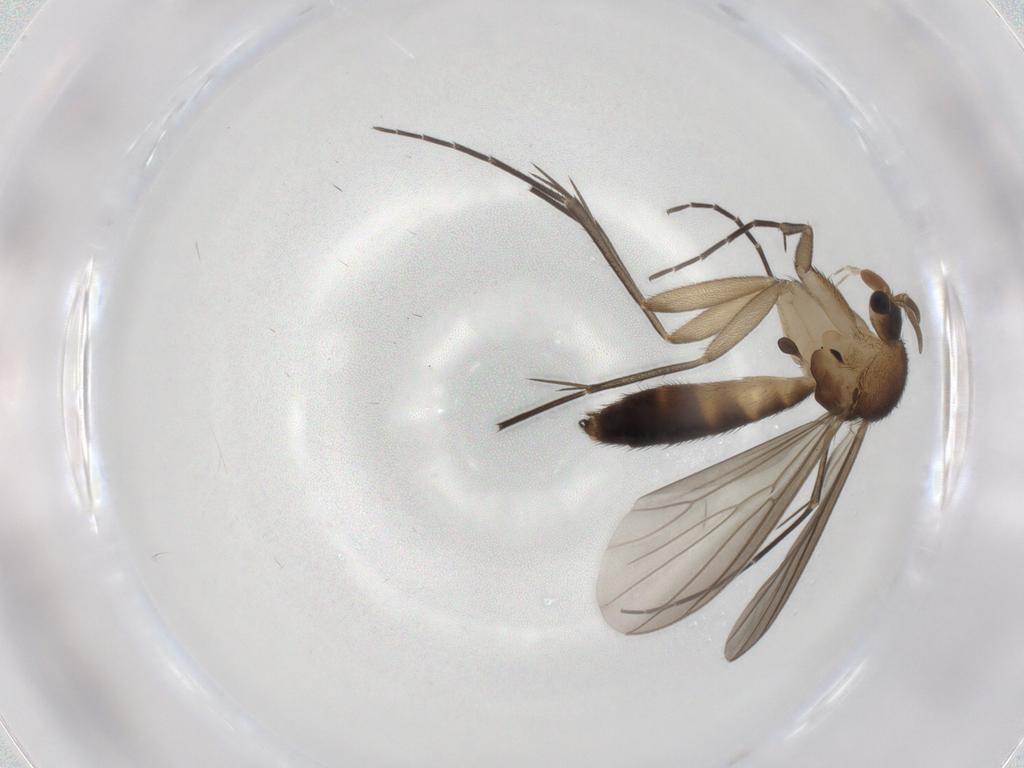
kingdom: Animalia
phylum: Arthropoda
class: Insecta
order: Diptera
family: Mycetophilidae
